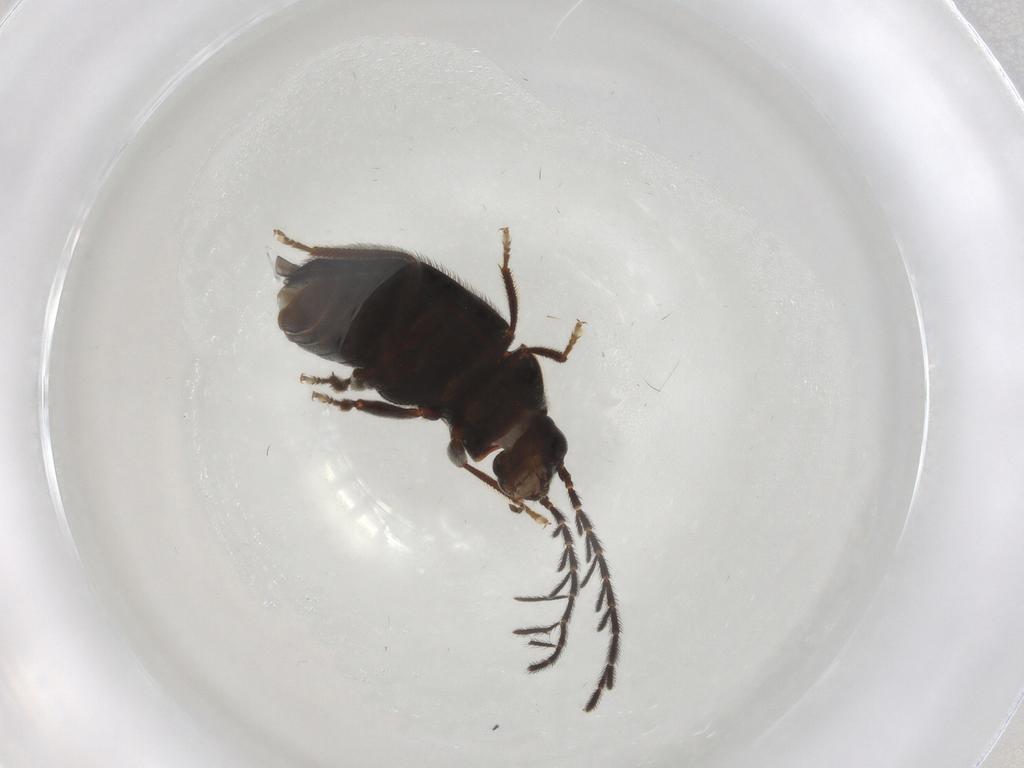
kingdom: Animalia
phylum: Arthropoda
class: Insecta
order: Coleoptera
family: Ptilodactylidae
